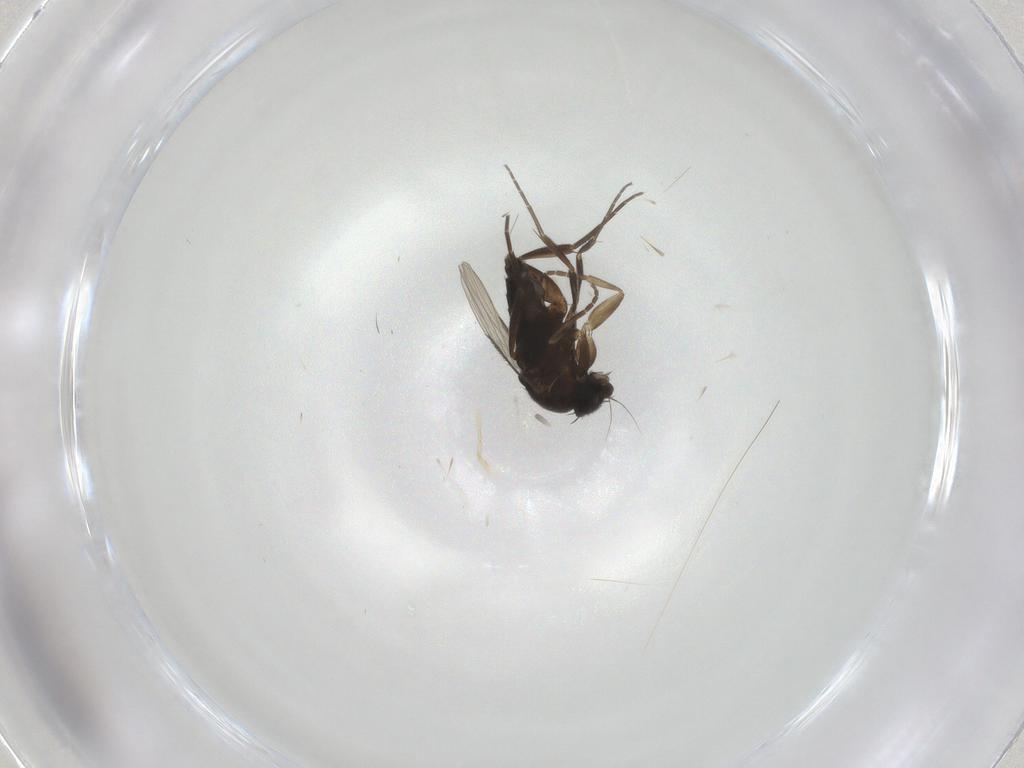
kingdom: Animalia
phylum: Arthropoda
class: Insecta
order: Diptera
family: Phoridae
